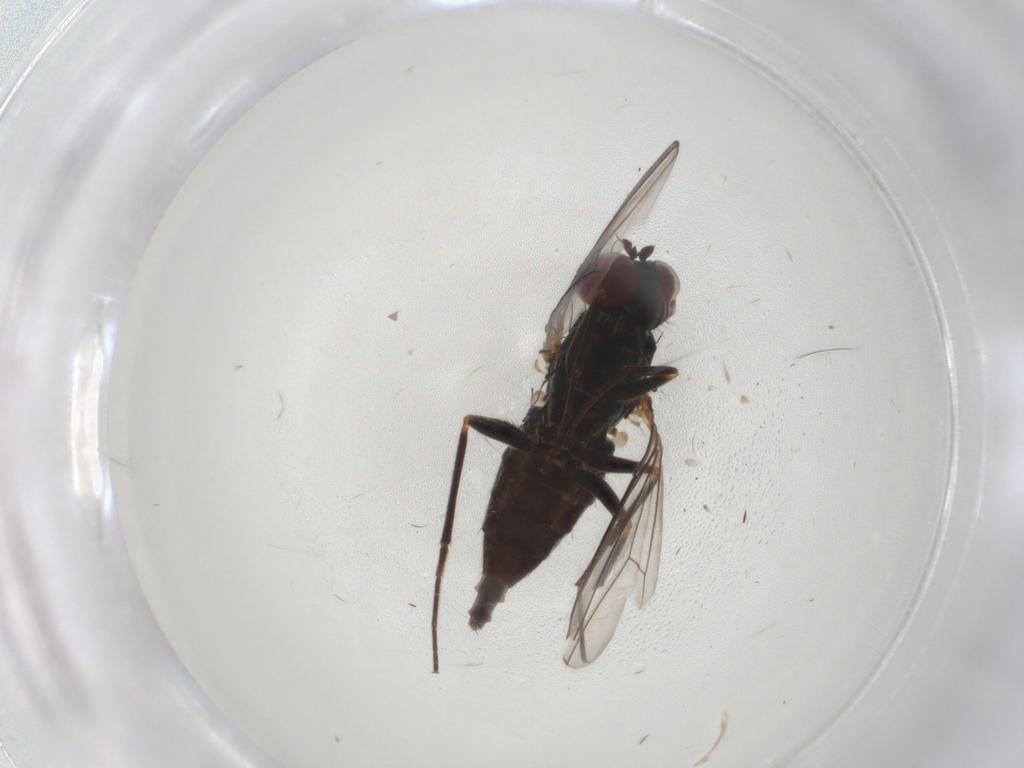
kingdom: Animalia
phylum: Arthropoda
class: Insecta
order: Diptera
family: Dolichopodidae
